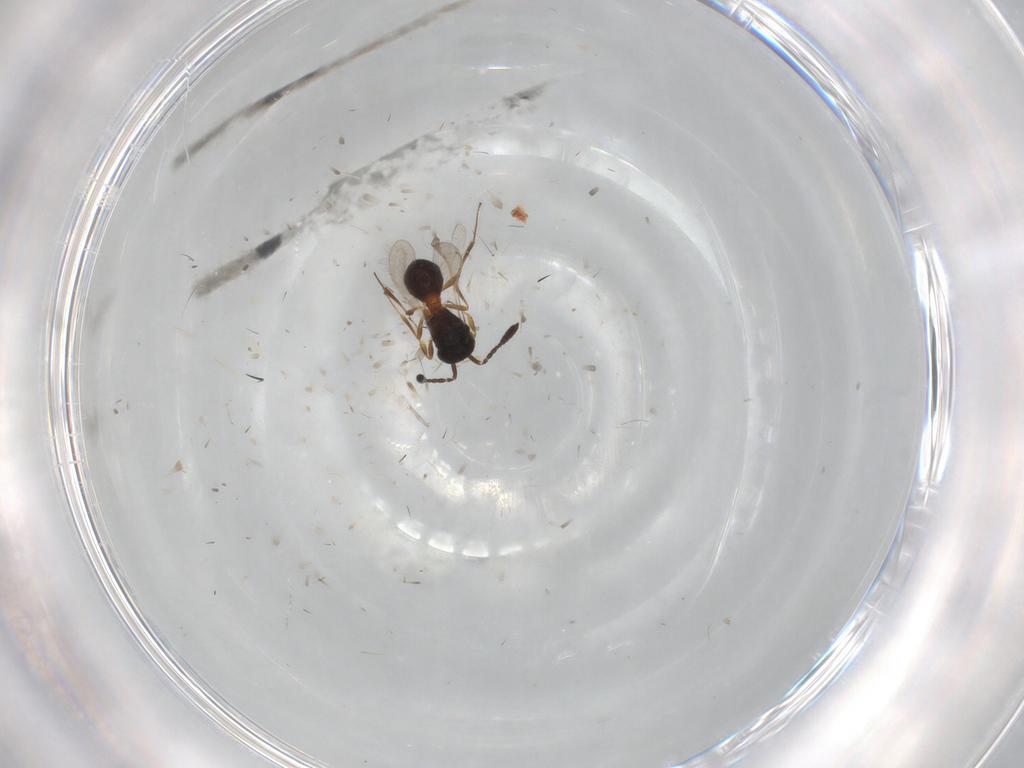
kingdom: Animalia
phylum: Arthropoda
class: Insecta
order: Hymenoptera
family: Scelionidae
